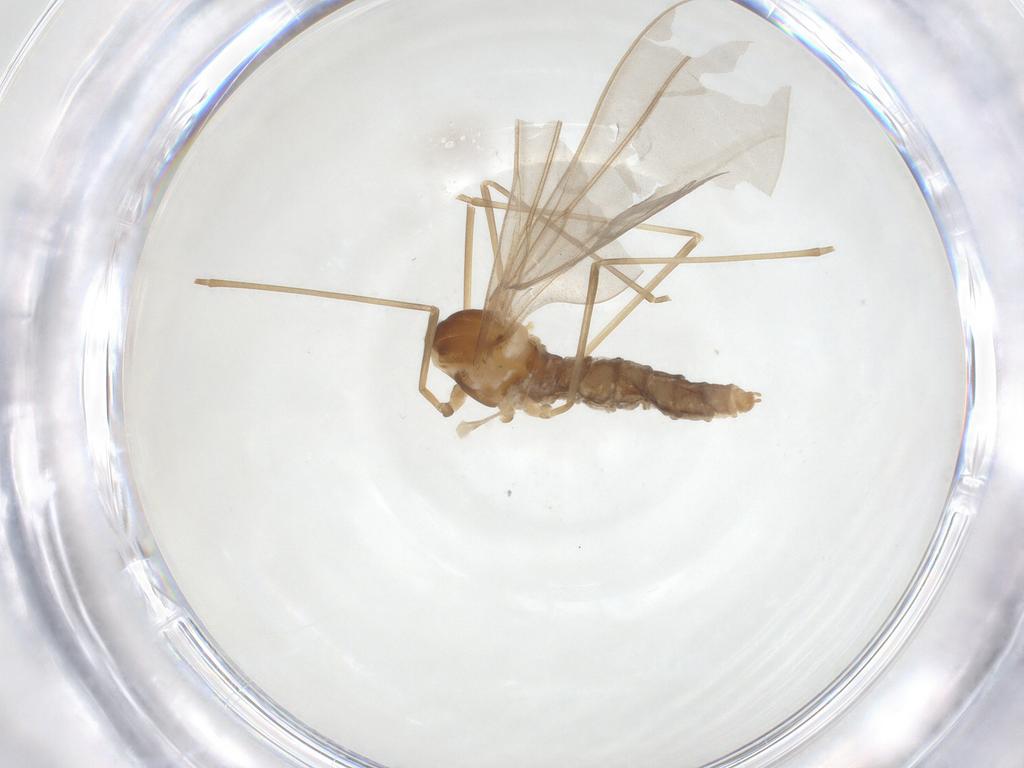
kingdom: Animalia
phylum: Arthropoda
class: Insecta
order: Diptera
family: Cecidomyiidae
